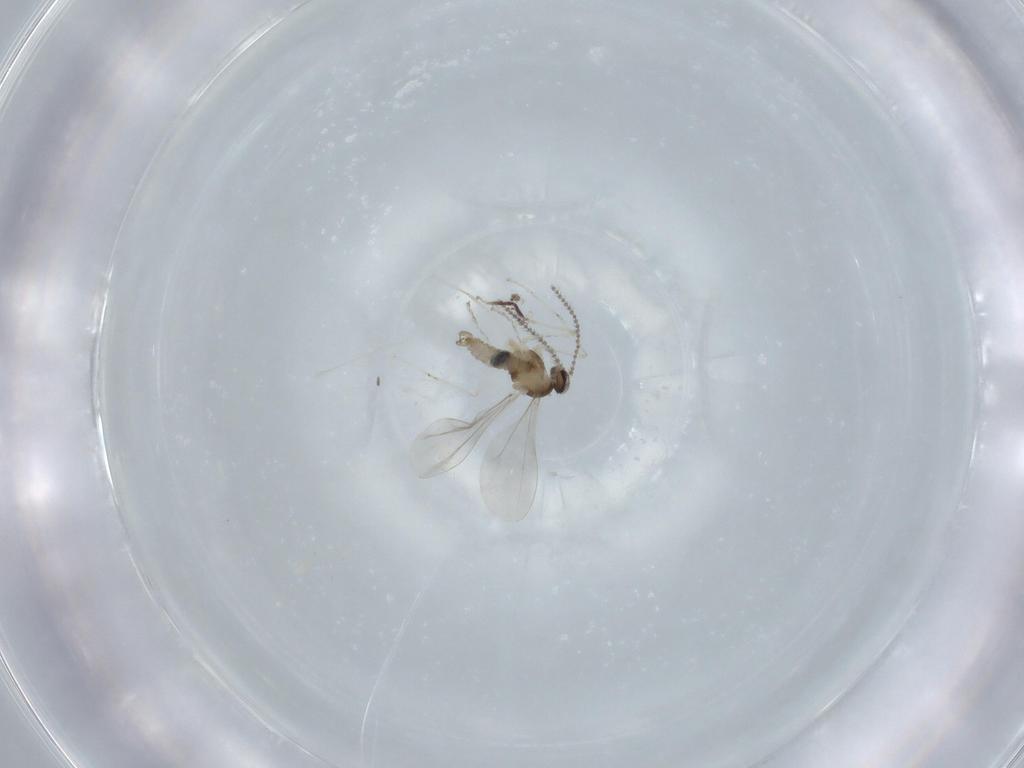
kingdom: Animalia
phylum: Arthropoda
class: Insecta
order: Diptera
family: Cecidomyiidae
